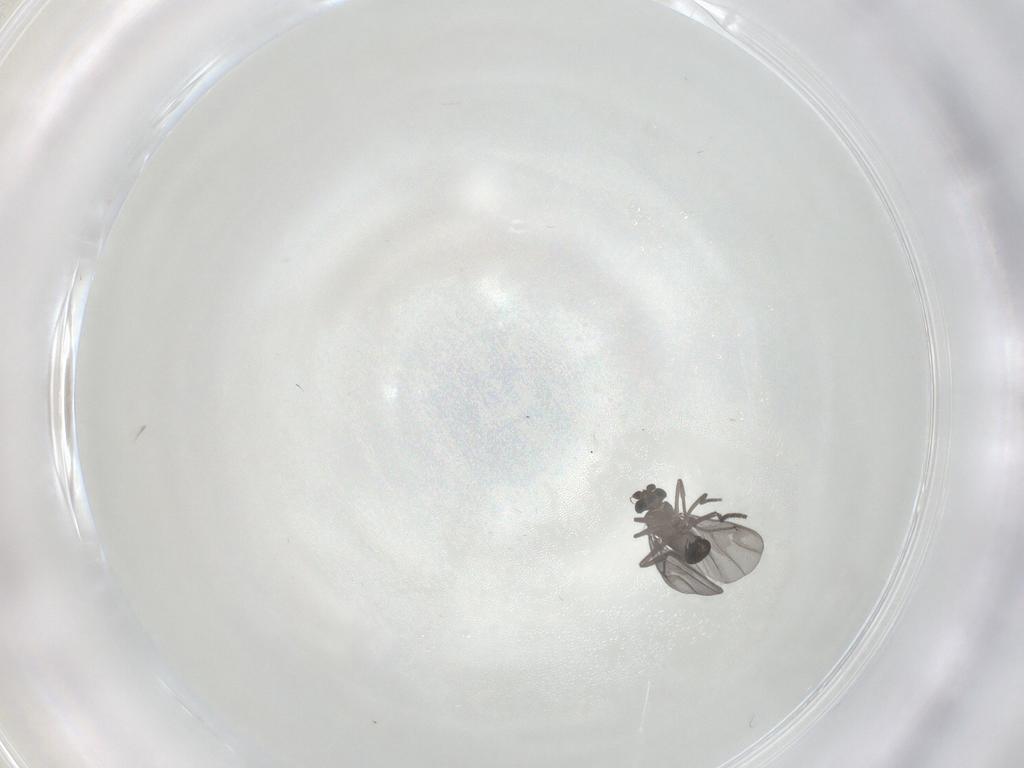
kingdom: Animalia
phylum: Arthropoda
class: Insecta
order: Diptera
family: Phoridae
